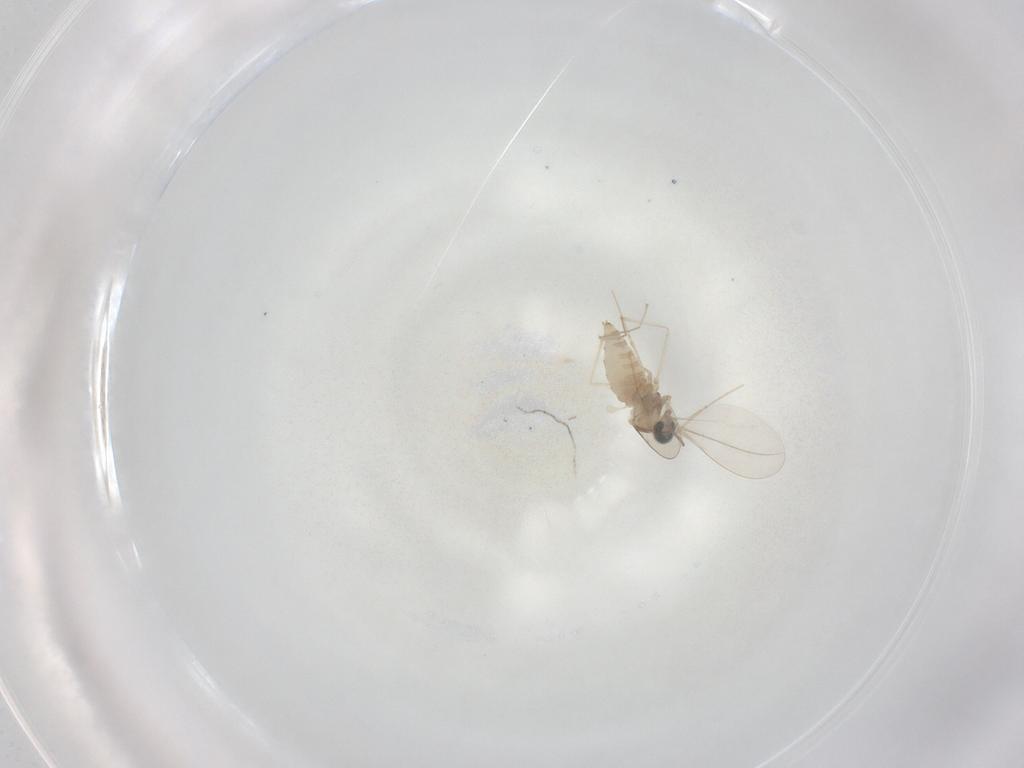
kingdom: Animalia
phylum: Arthropoda
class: Insecta
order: Diptera
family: Cecidomyiidae
